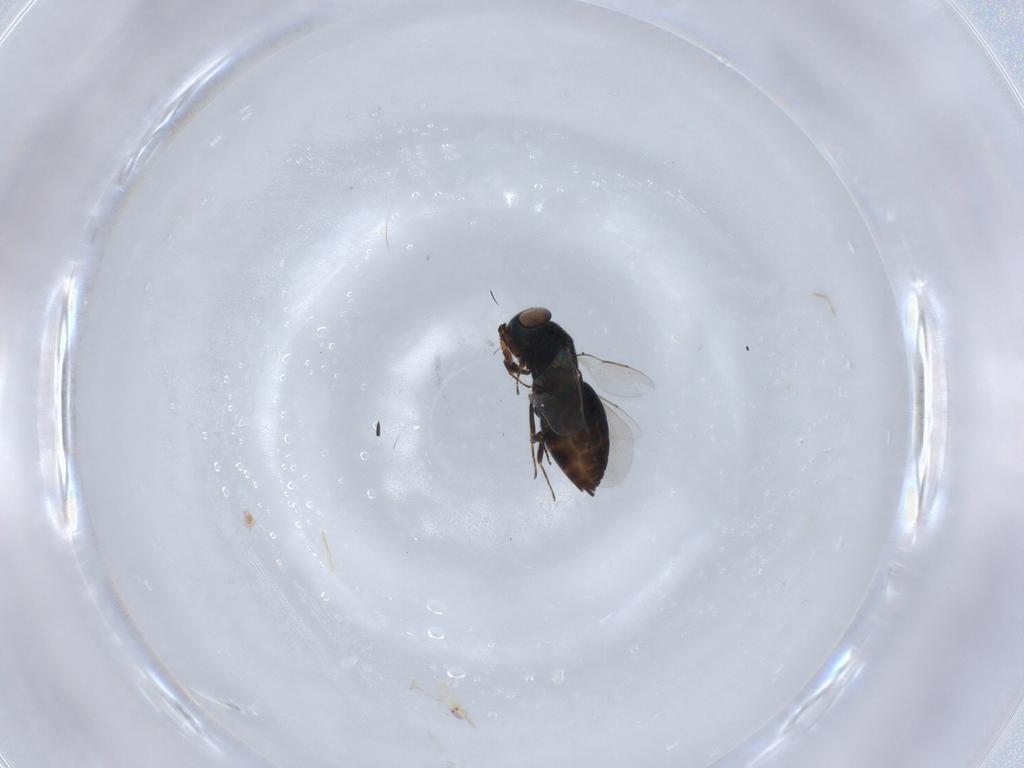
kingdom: Animalia
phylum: Arthropoda
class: Insecta
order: Hymenoptera
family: Eunotidae
